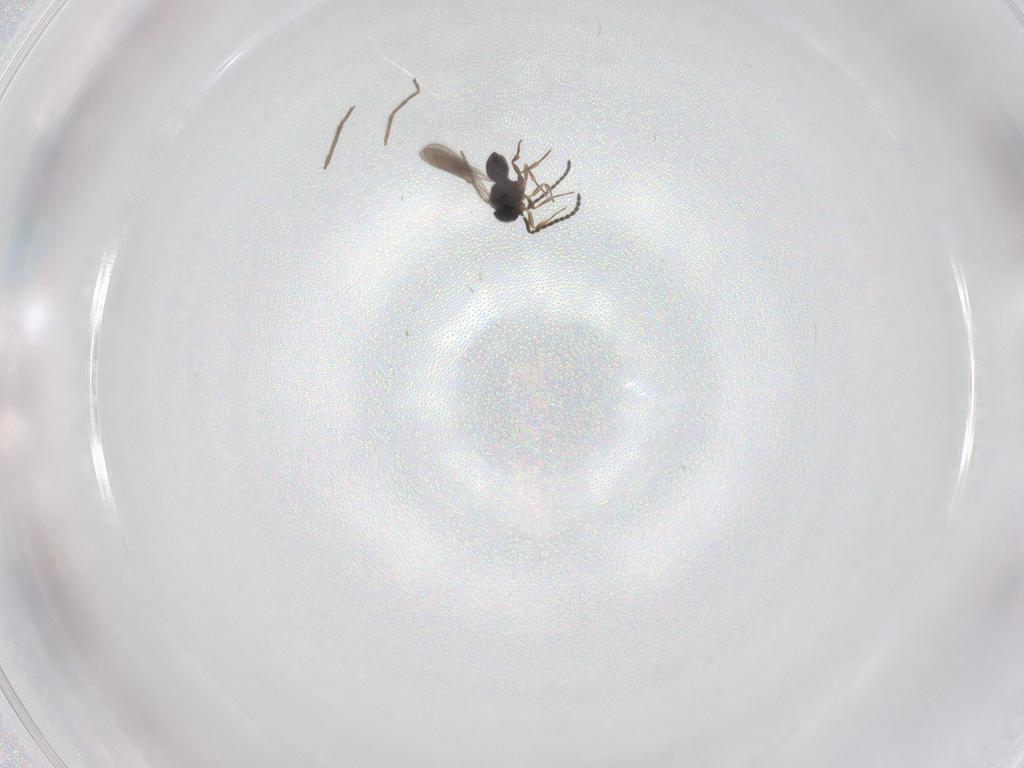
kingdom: Animalia
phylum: Arthropoda
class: Insecta
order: Hymenoptera
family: Scelionidae
